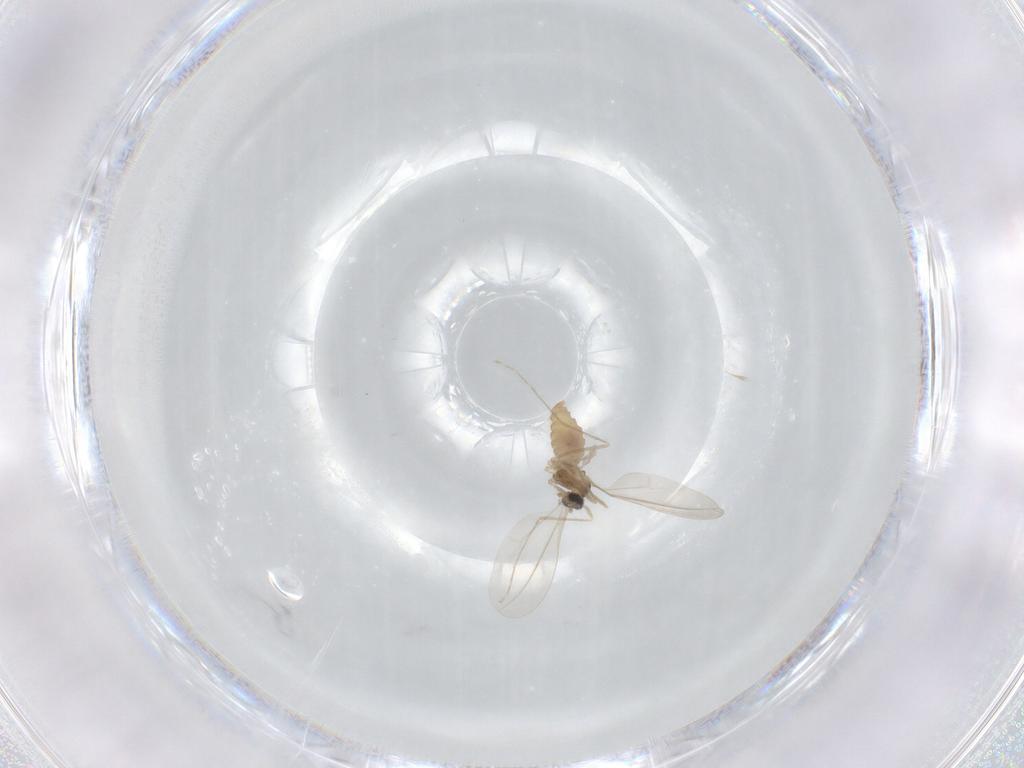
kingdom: Animalia
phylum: Arthropoda
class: Insecta
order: Diptera
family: Cecidomyiidae
